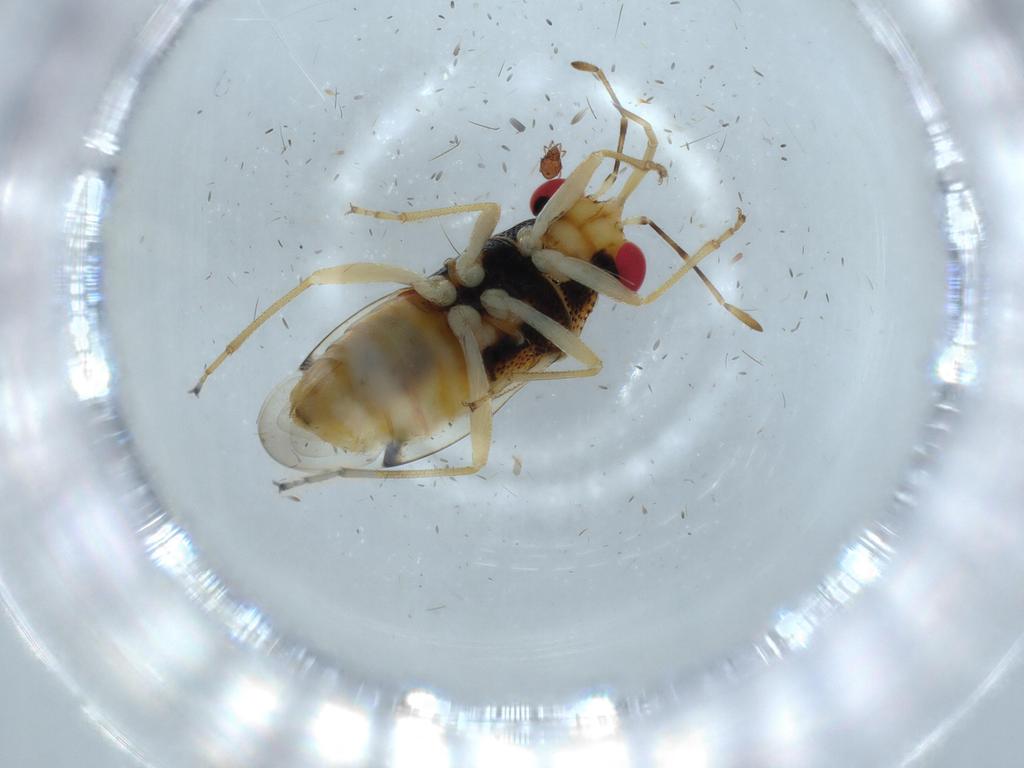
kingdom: Animalia
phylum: Arthropoda
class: Insecta
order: Hemiptera
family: Geocoridae
